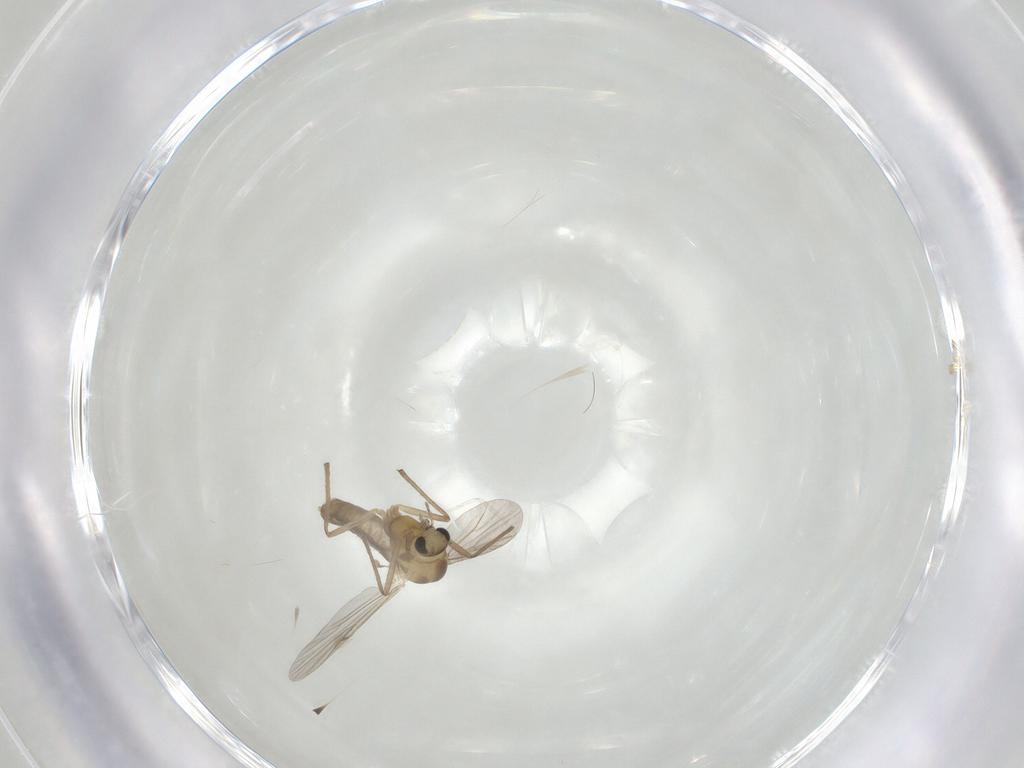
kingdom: Animalia
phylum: Arthropoda
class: Insecta
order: Diptera
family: Chironomidae
